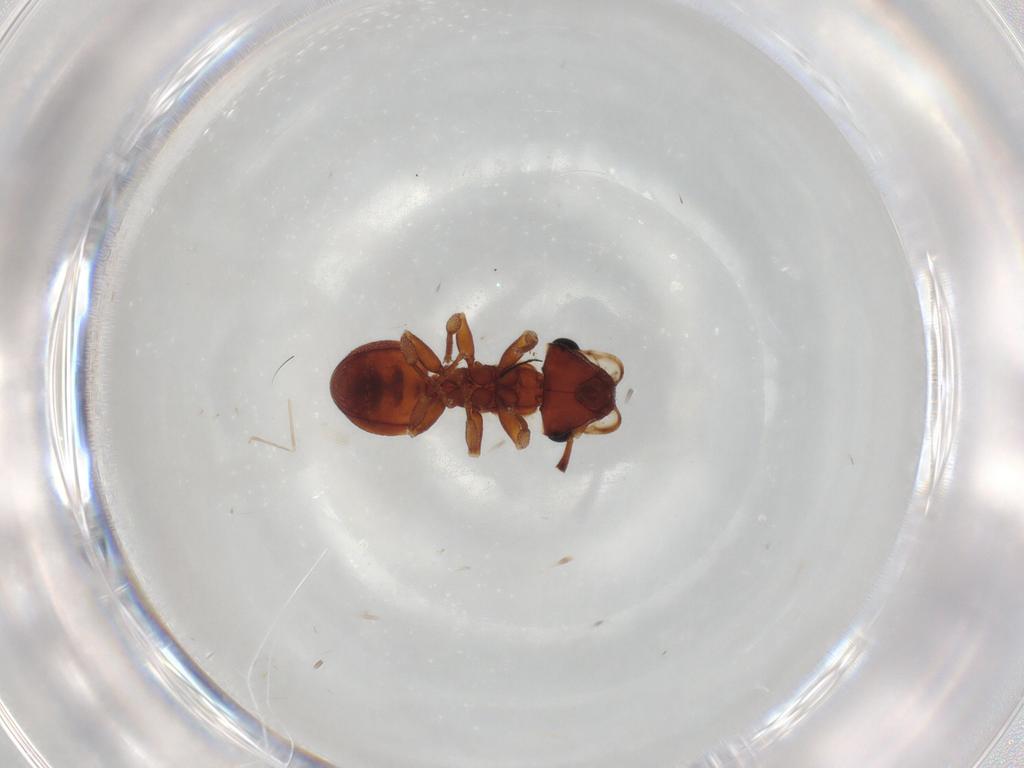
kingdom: Animalia
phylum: Arthropoda
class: Insecta
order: Hymenoptera
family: Formicidae
